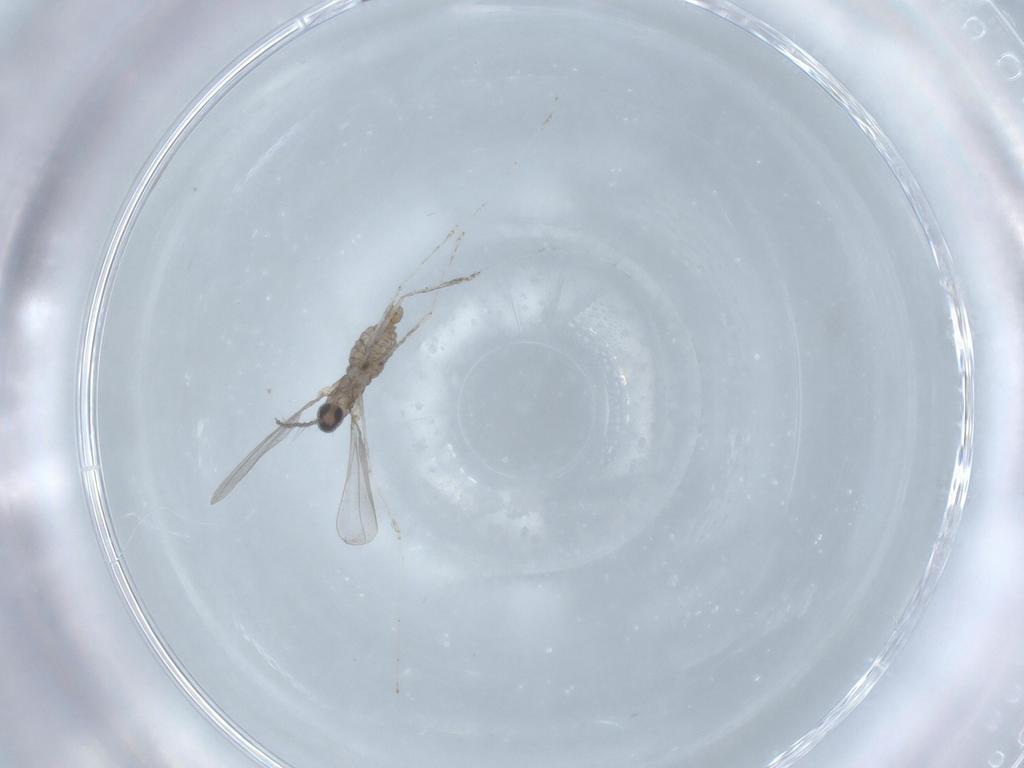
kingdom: Animalia
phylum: Arthropoda
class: Insecta
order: Diptera
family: Cecidomyiidae
